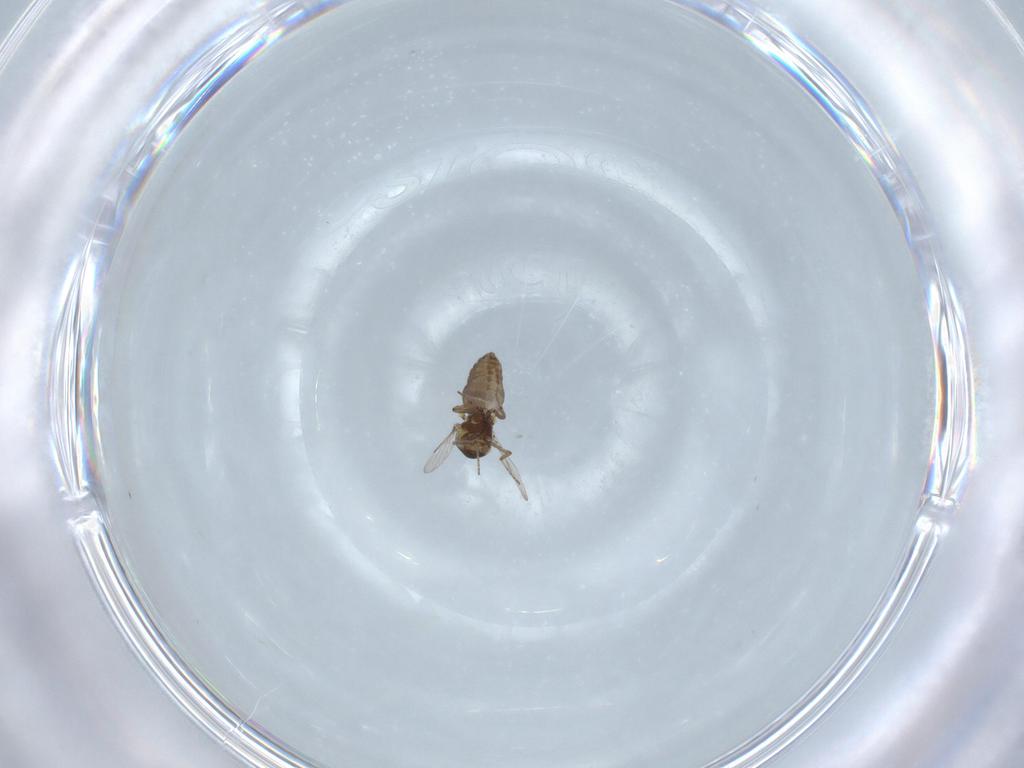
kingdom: Animalia
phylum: Arthropoda
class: Insecta
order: Diptera
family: Ceratopogonidae
